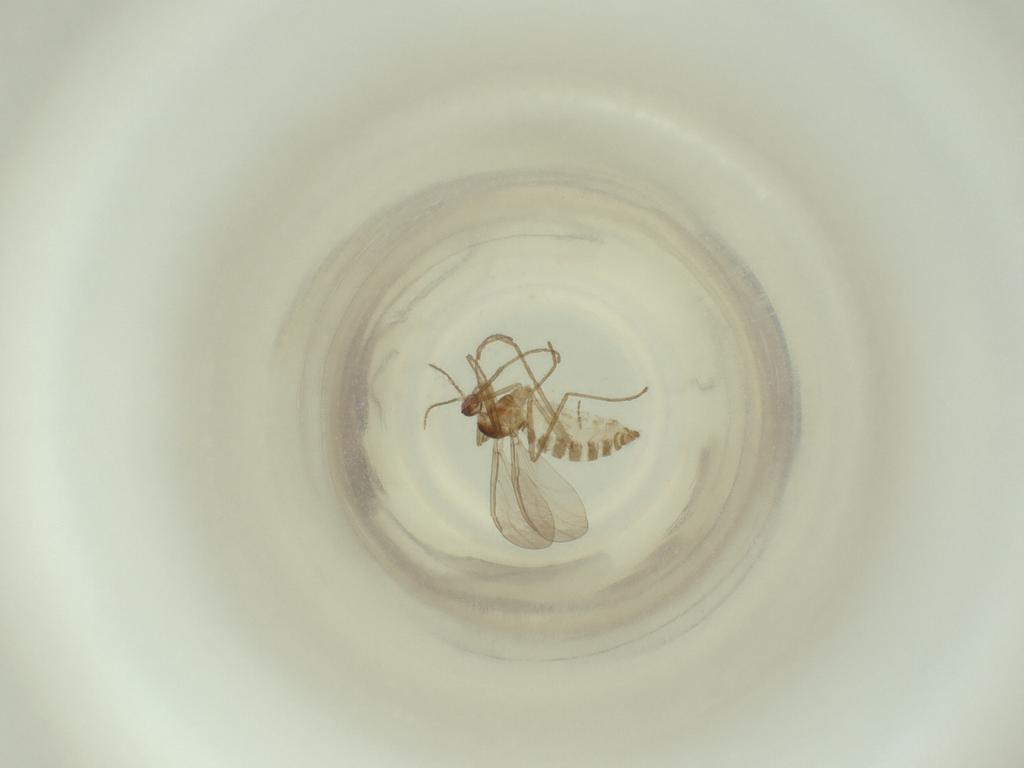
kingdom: Animalia
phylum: Arthropoda
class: Insecta
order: Diptera
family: Cecidomyiidae
